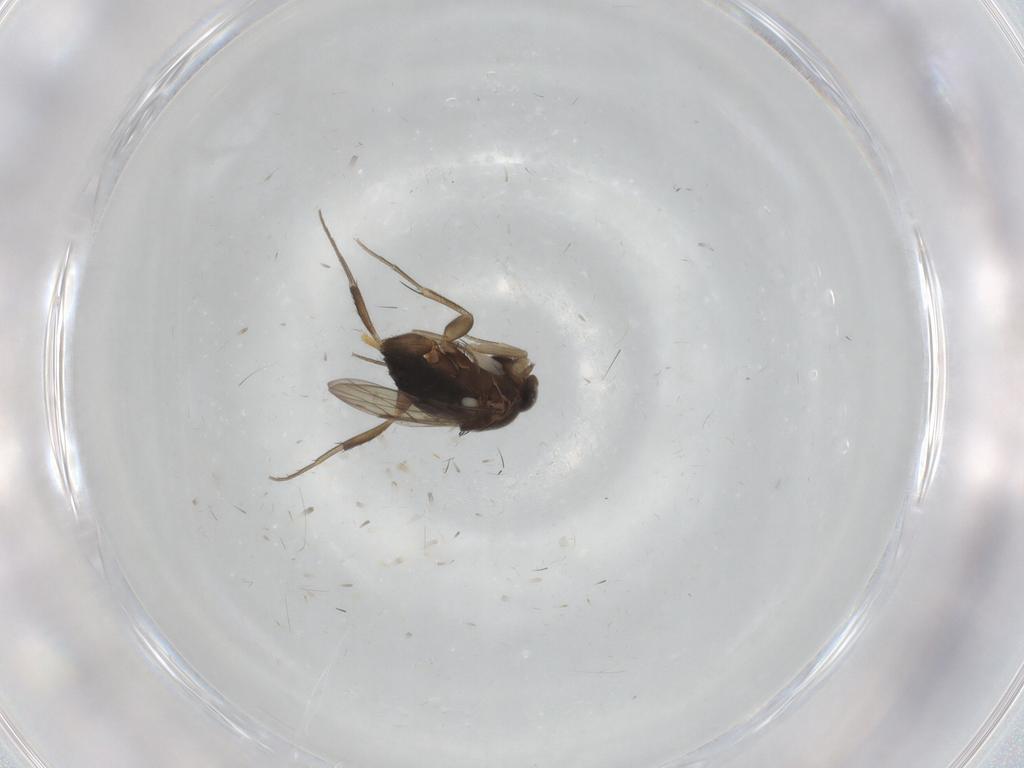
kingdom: Animalia
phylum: Arthropoda
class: Insecta
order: Diptera
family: Phoridae
